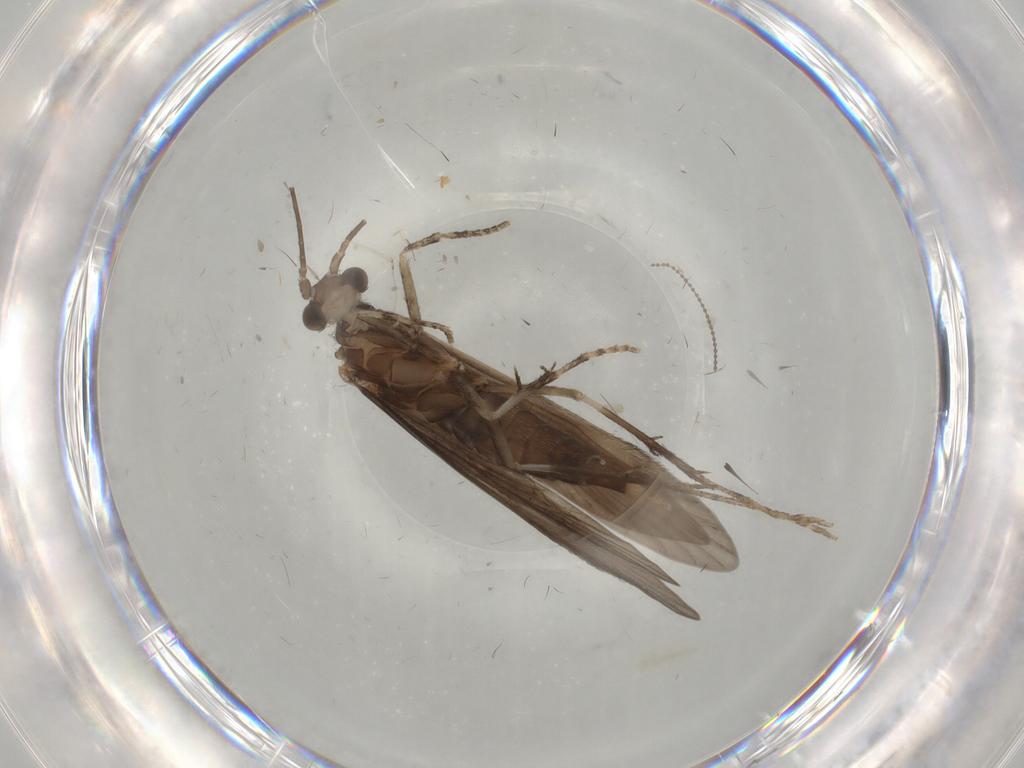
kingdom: Animalia
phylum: Arthropoda
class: Insecta
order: Trichoptera
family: Xiphocentronidae
